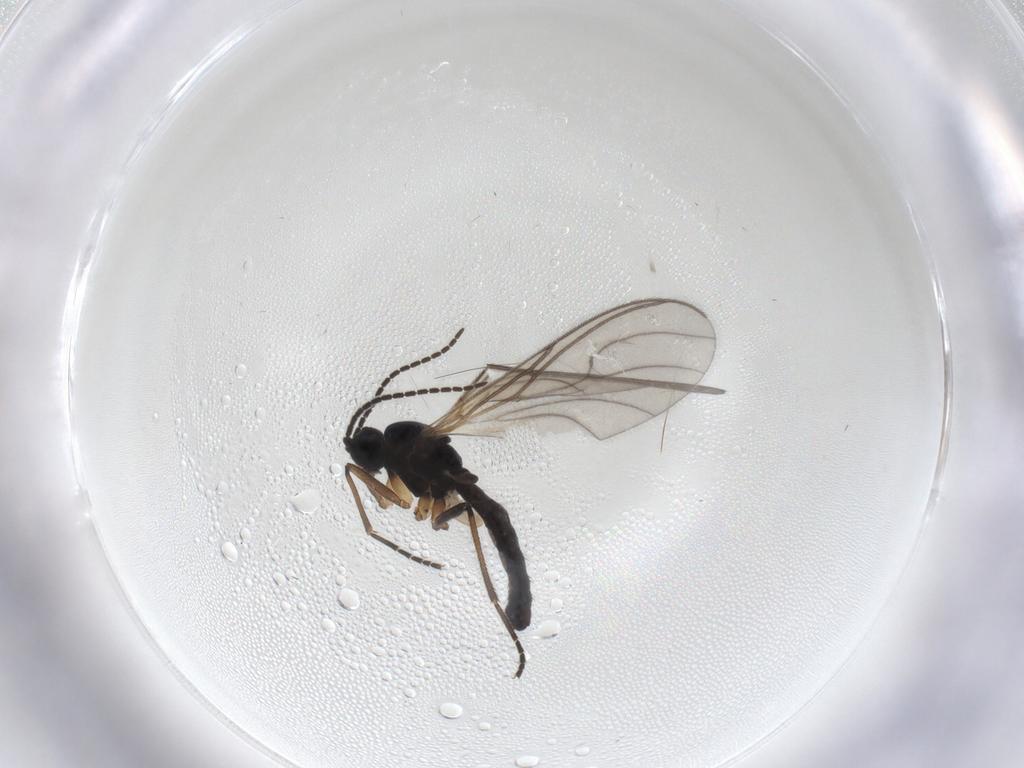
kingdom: Animalia
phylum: Arthropoda
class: Insecta
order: Diptera
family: Sciaridae
